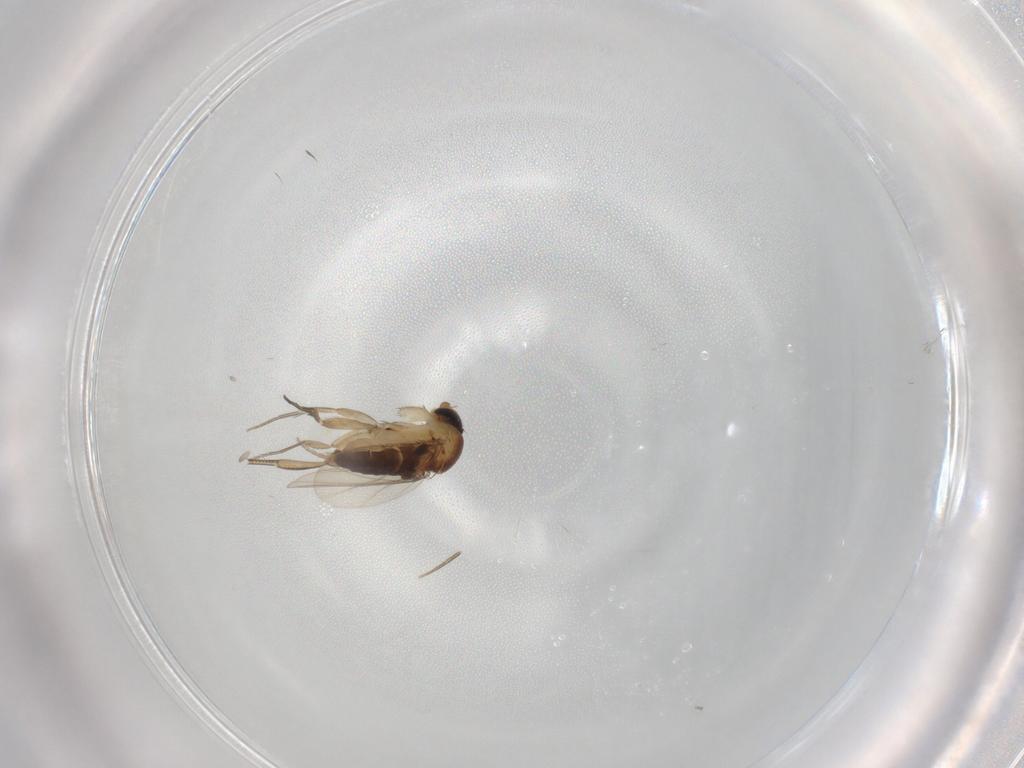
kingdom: Animalia
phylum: Arthropoda
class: Insecta
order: Diptera
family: Phoridae
